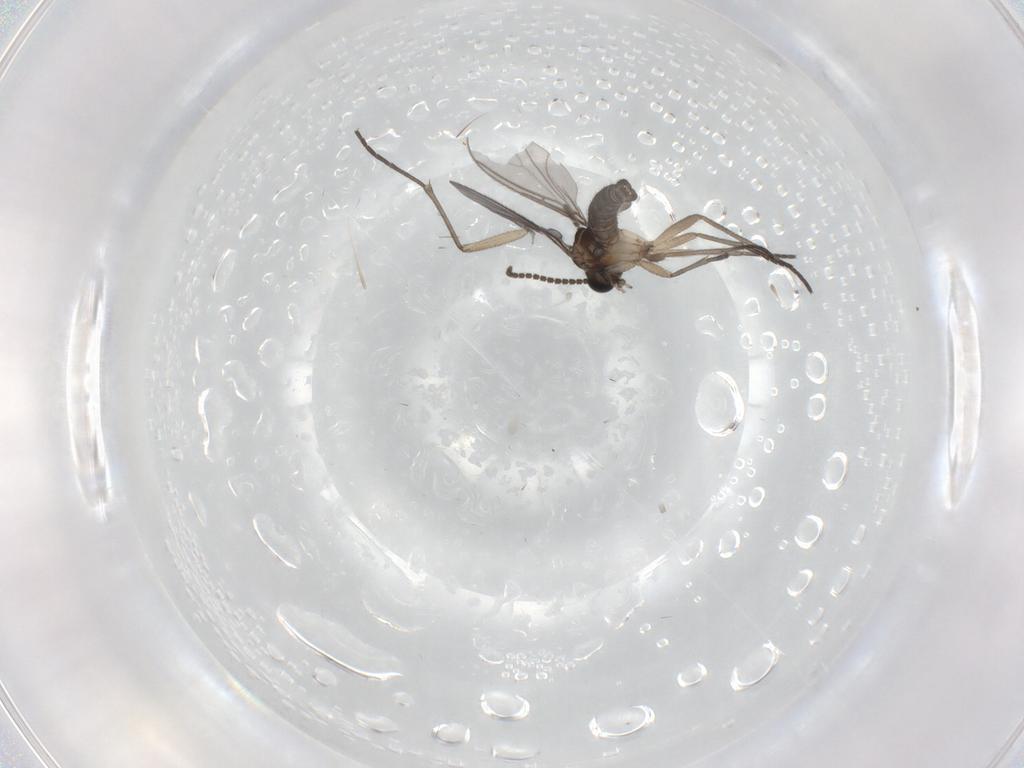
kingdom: Animalia
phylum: Arthropoda
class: Insecta
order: Diptera
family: Sciaridae
